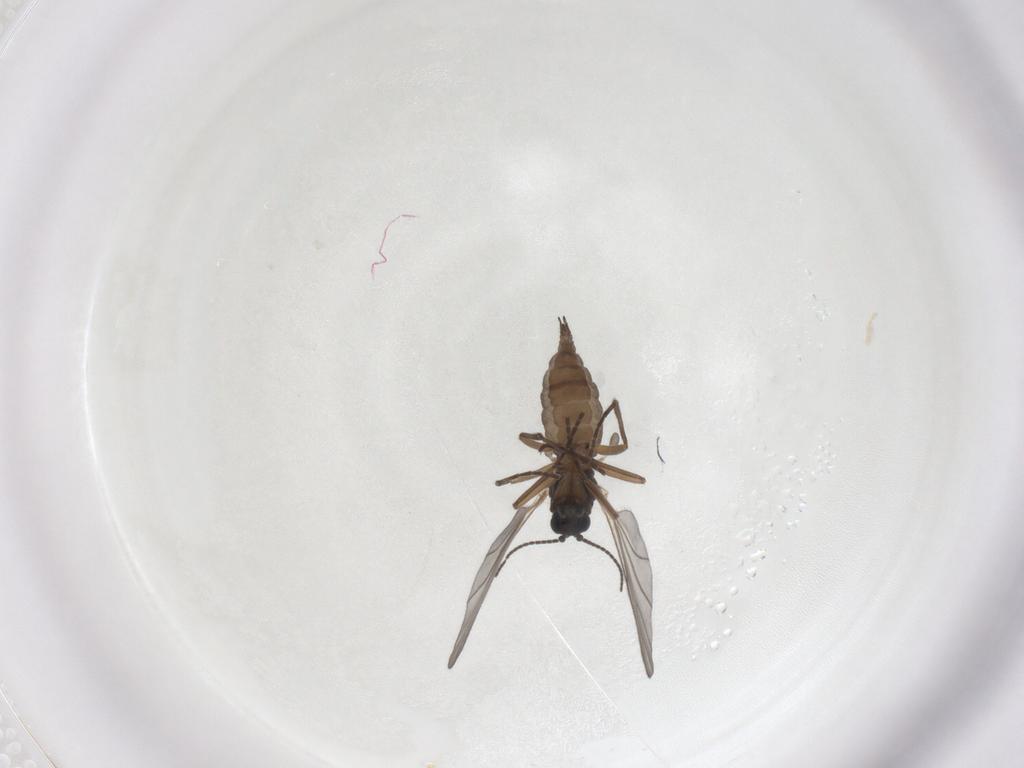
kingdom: Animalia
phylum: Arthropoda
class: Insecta
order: Diptera
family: Sciaridae
